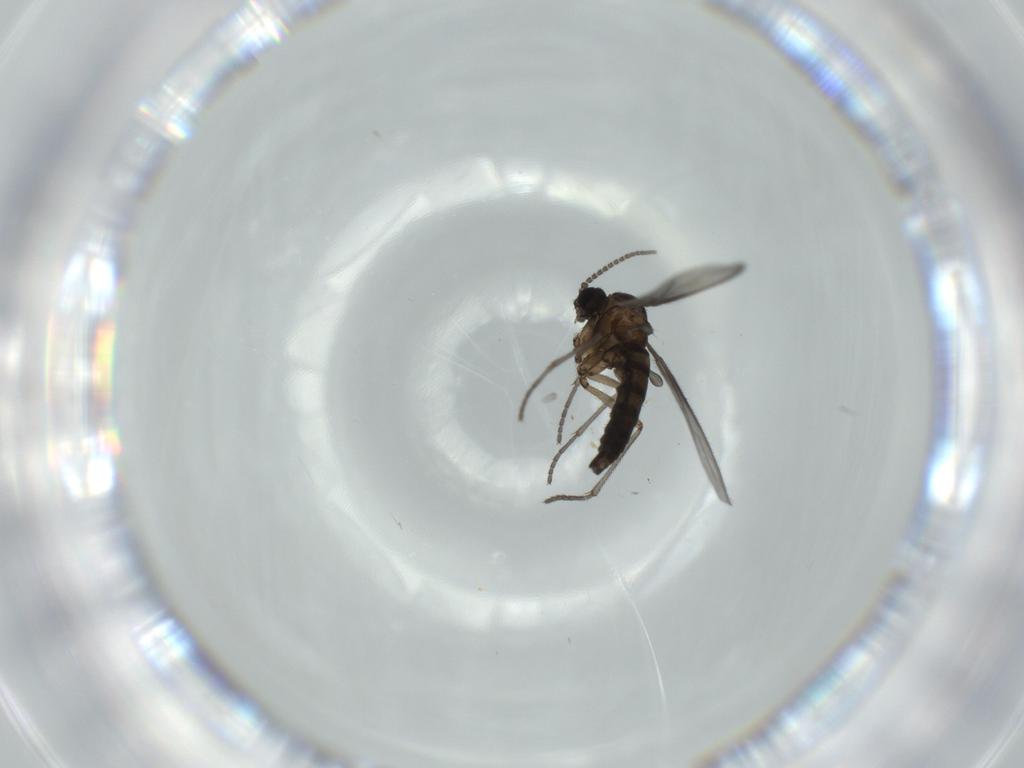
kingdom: Animalia
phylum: Arthropoda
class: Insecta
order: Diptera
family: Sciaridae
